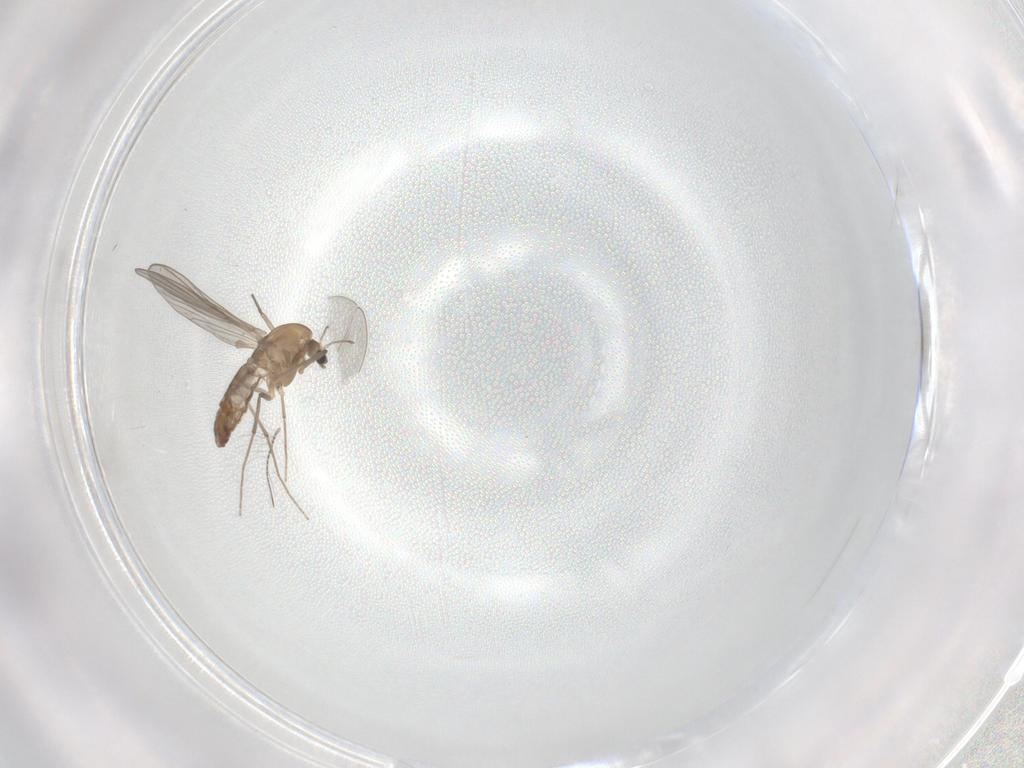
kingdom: Animalia
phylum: Arthropoda
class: Insecta
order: Diptera
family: Chironomidae
